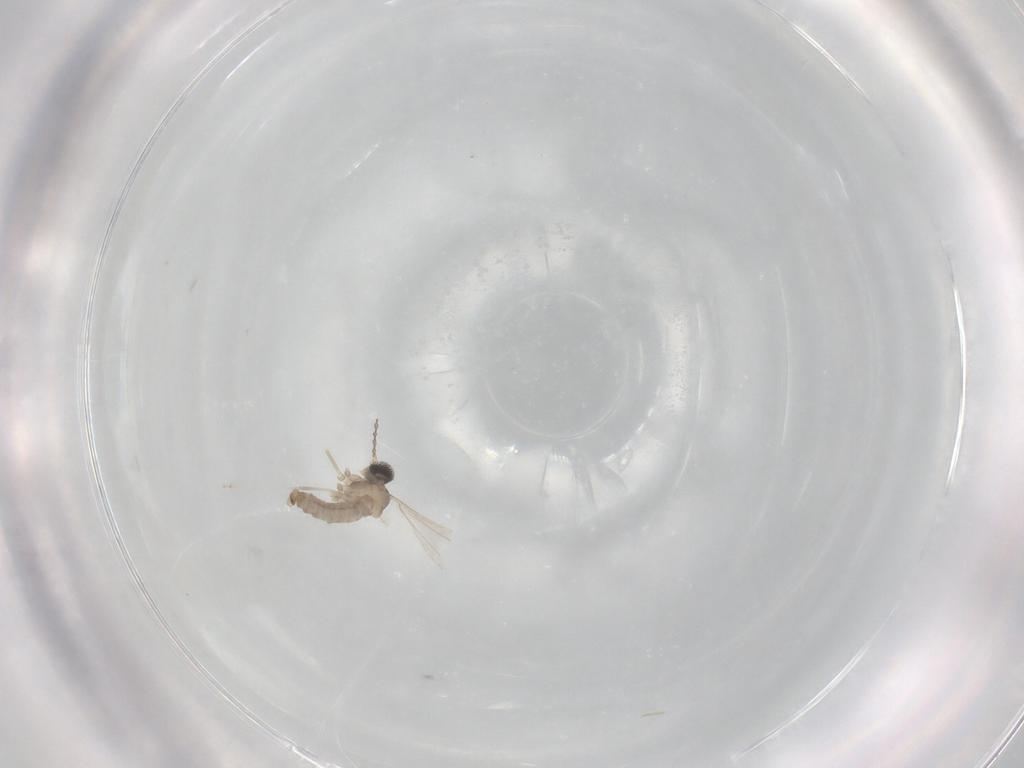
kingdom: Animalia
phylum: Arthropoda
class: Insecta
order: Diptera
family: Cecidomyiidae
